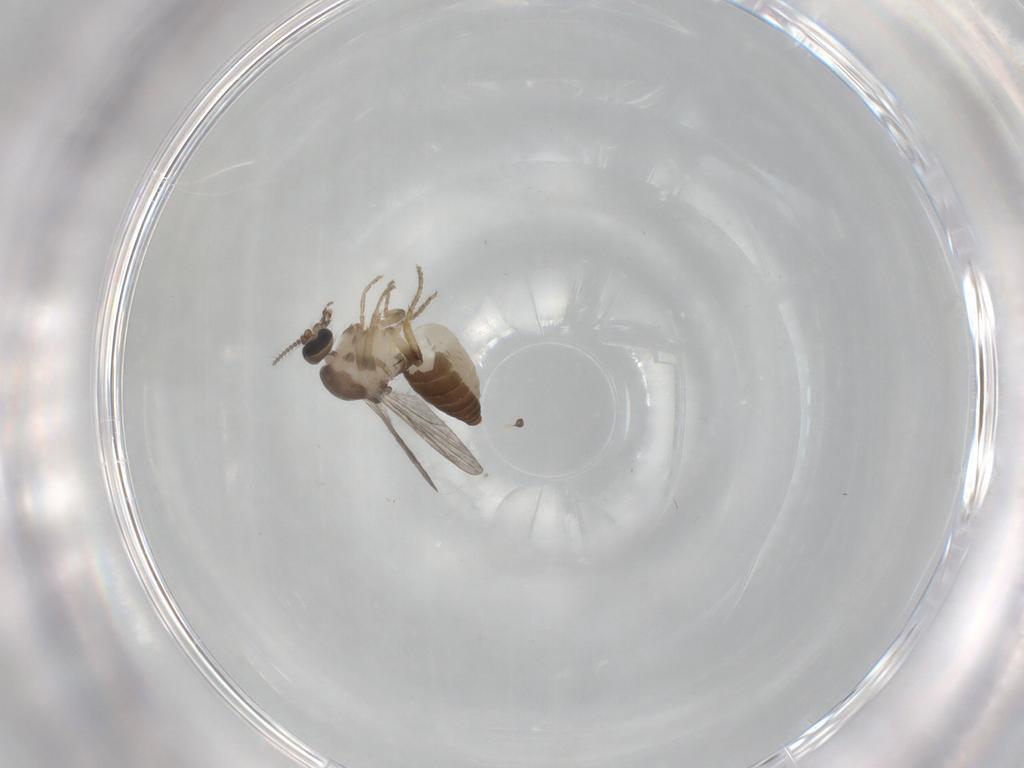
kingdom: Animalia
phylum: Arthropoda
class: Insecta
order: Diptera
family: Ceratopogonidae
